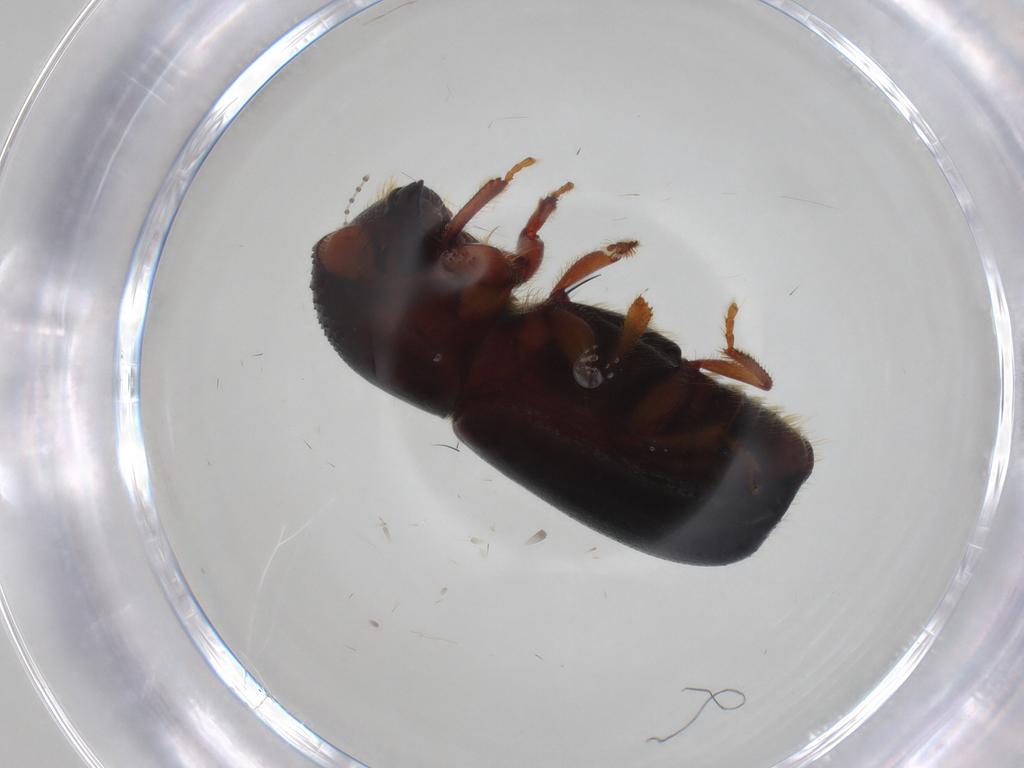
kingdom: Animalia
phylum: Arthropoda
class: Insecta
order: Coleoptera
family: Curculionidae
